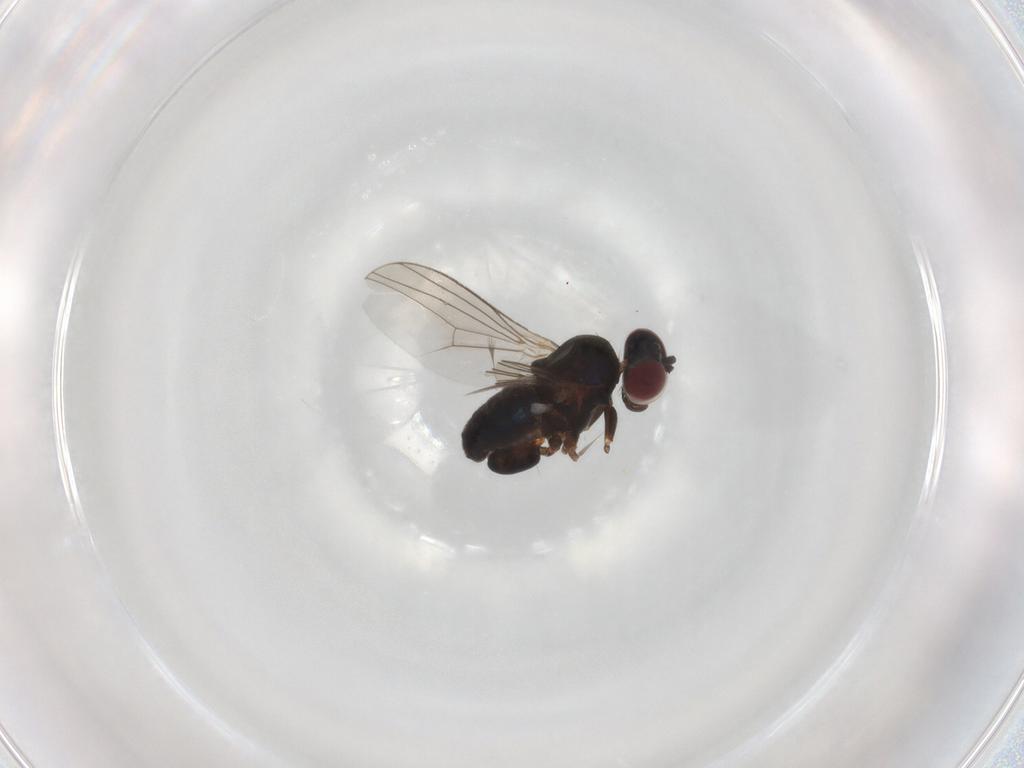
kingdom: Animalia
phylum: Arthropoda
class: Insecta
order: Diptera
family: Dolichopodidae
